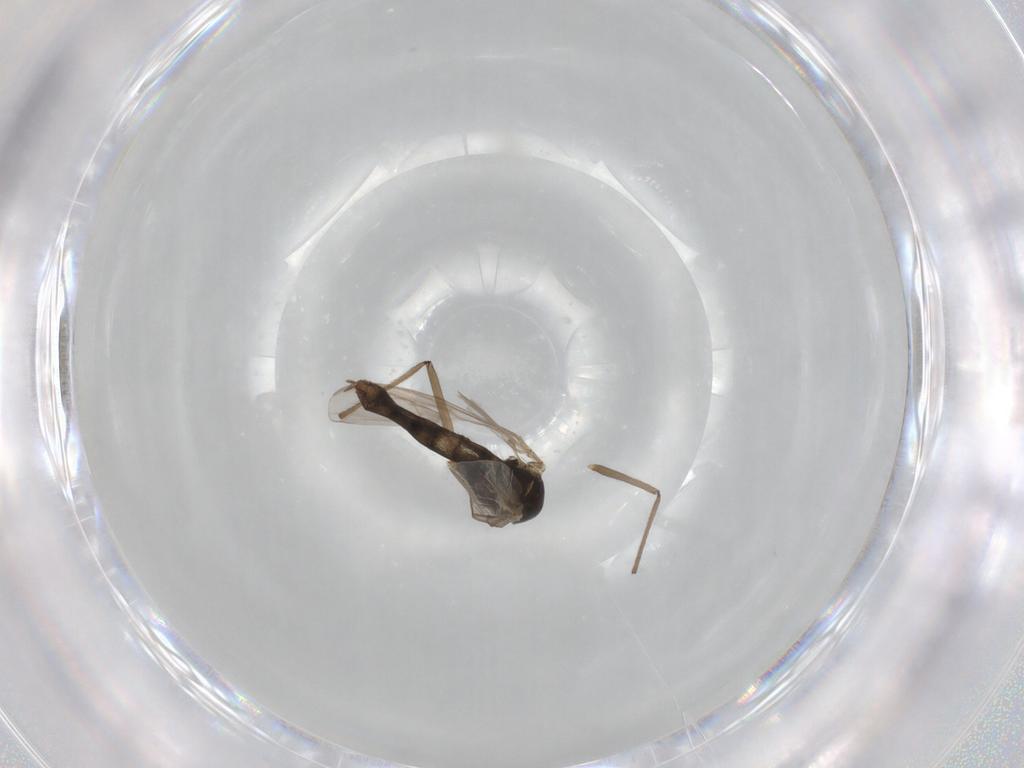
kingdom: Animalia
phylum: Arthropoda
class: Insecta
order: Diptera
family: Chironomidae
